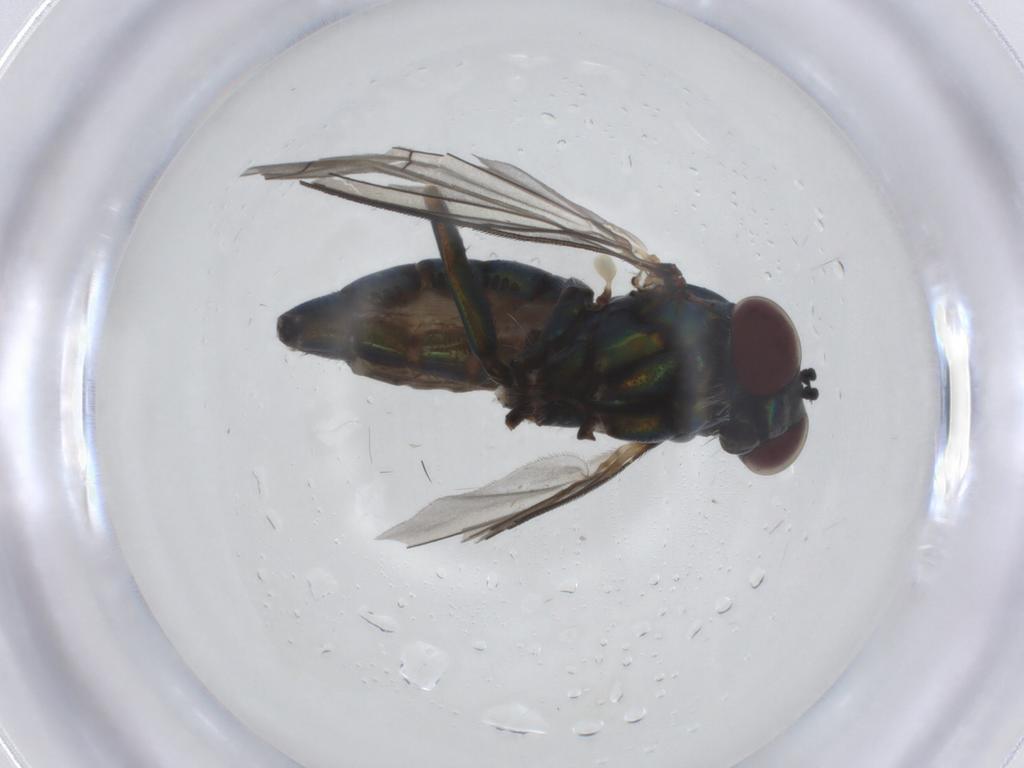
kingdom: Animalia
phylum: Arthropoda
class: Insecta
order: Diptera
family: Dolichopodidae
